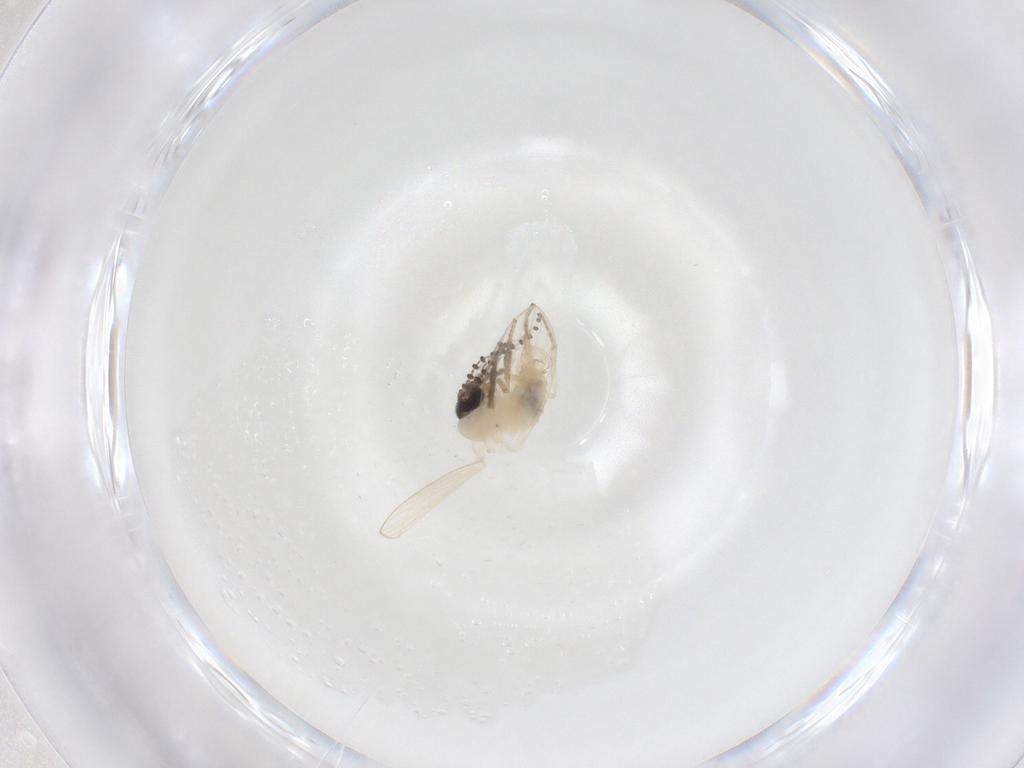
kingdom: Animalia
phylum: Arthropoda
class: Insecta
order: Diptera
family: Psychodidae
